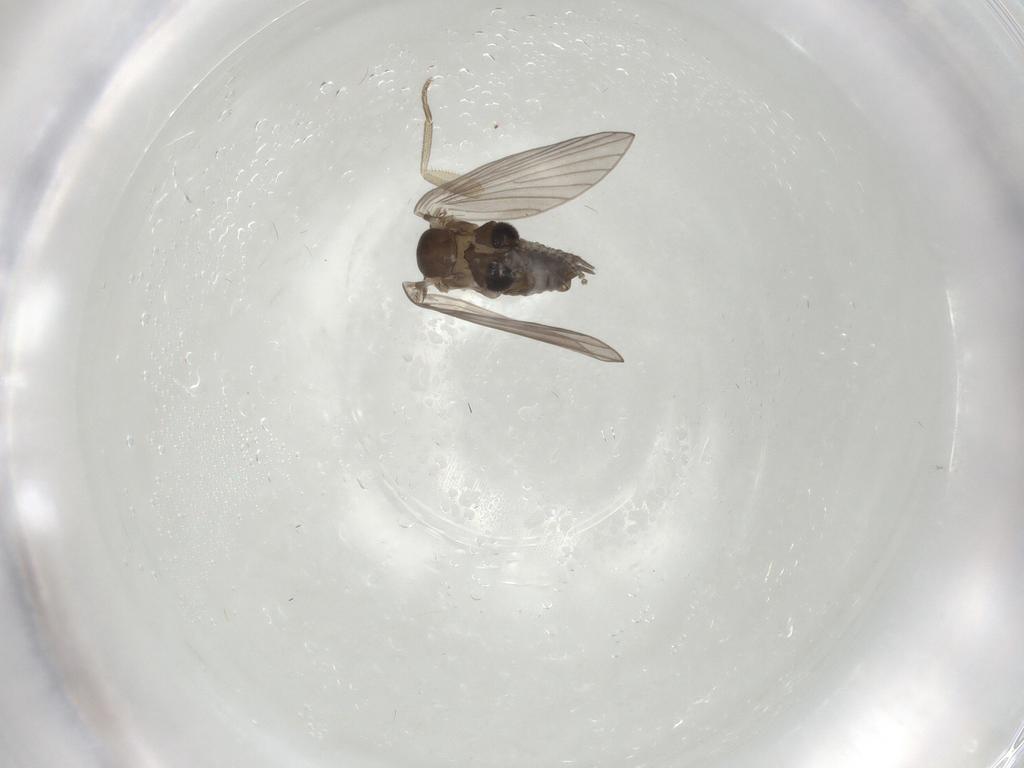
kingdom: Animalia
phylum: Arthropoda
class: Insecta
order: Diptera
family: Psychodidae
